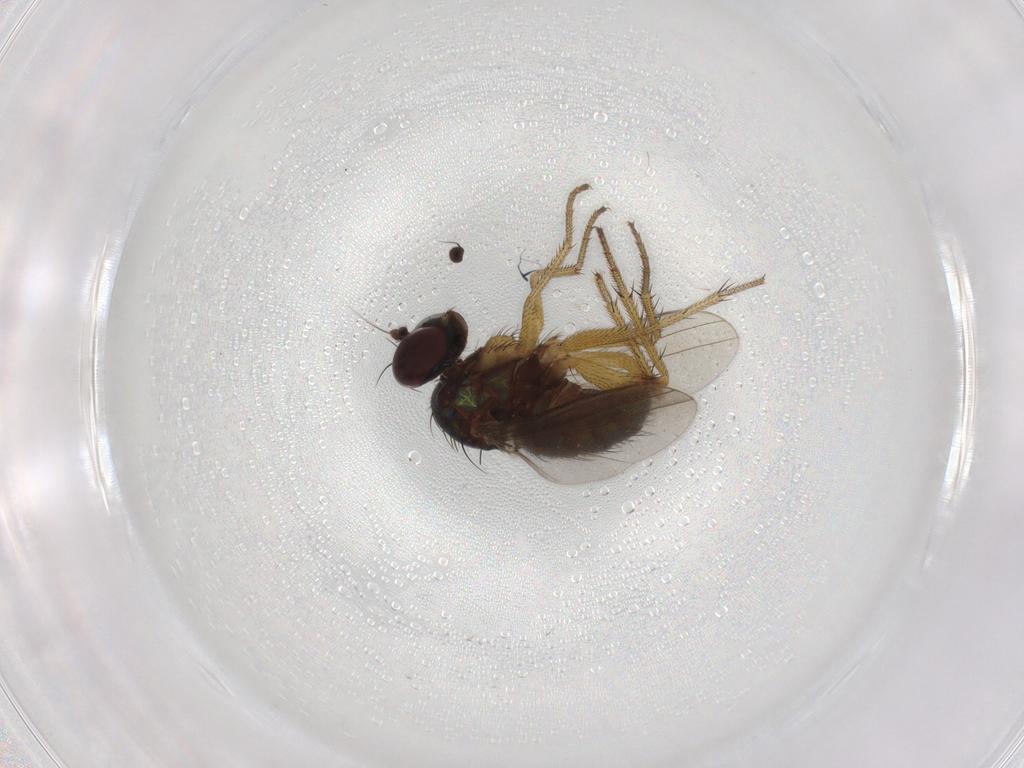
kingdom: Animalia
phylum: Arthropoda
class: Insecta
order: Diptera
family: Dolichopodidae
